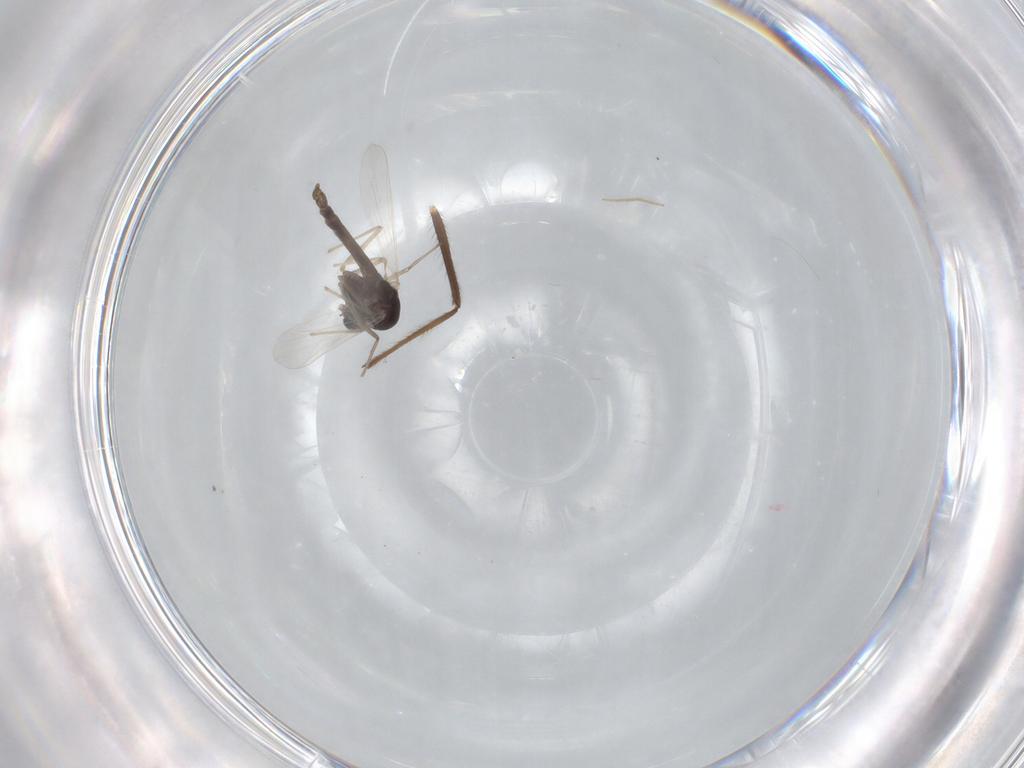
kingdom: Animalia
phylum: Arthropoda
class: Insecta
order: Diptera
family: Chironomidae
